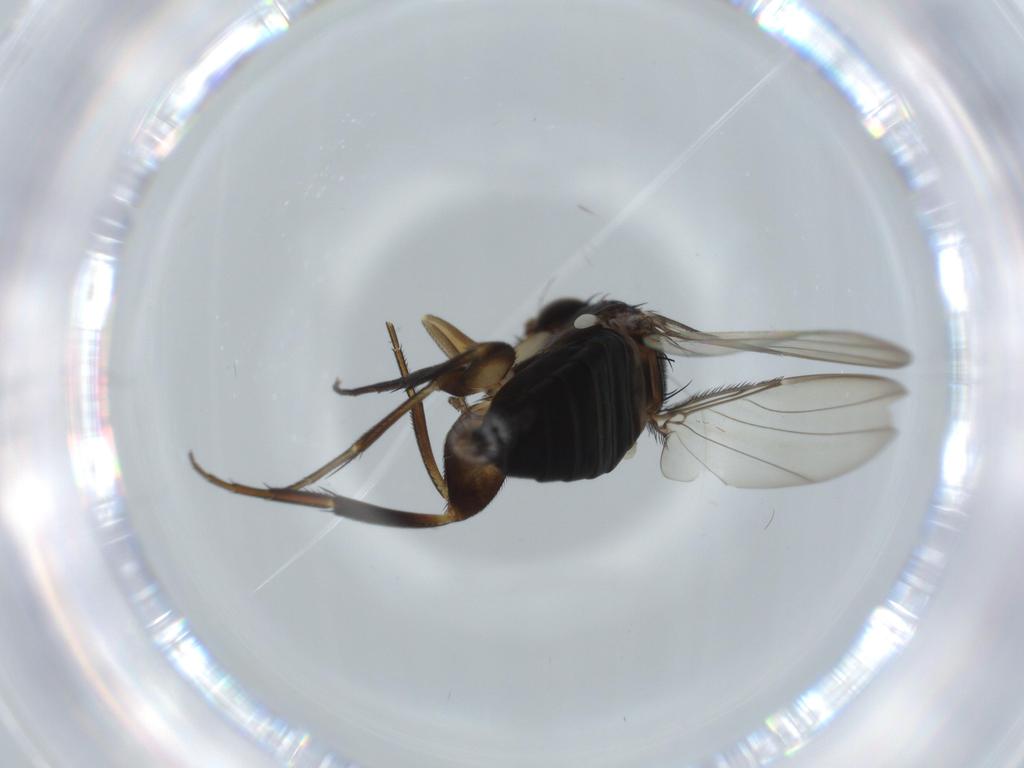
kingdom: Animalia
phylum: Arthropoda
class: Insecta
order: Diptera
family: Phoridae
